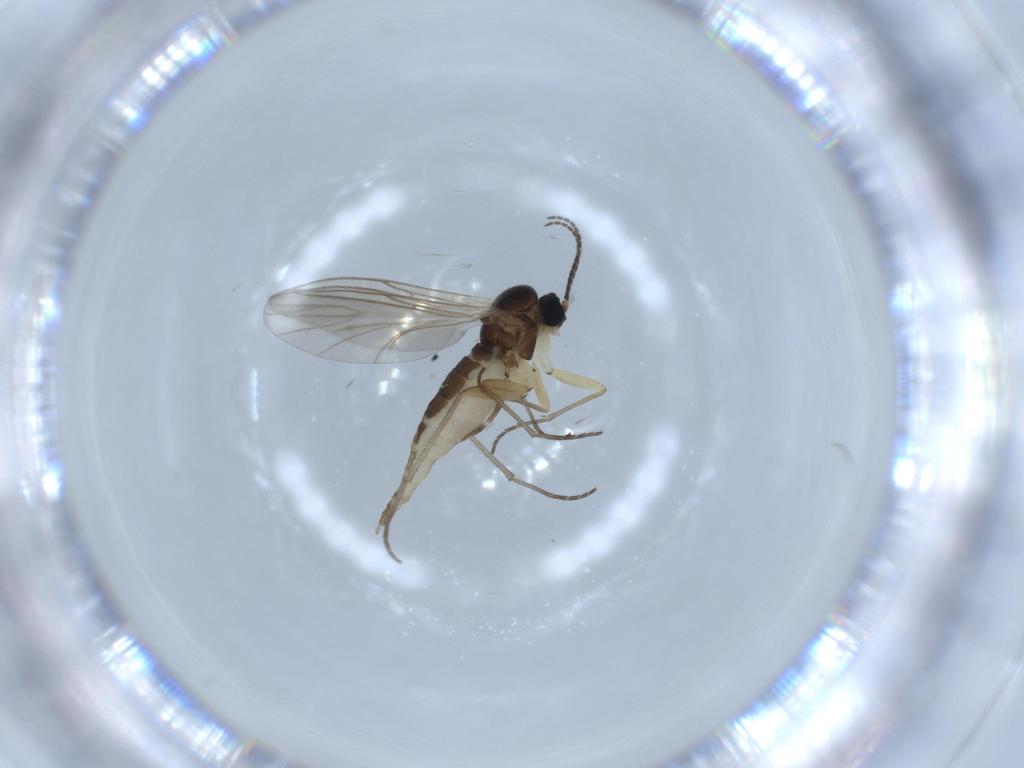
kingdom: Animalia
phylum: Arthropoda
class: Insecta
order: Diptera
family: Sciaridae
